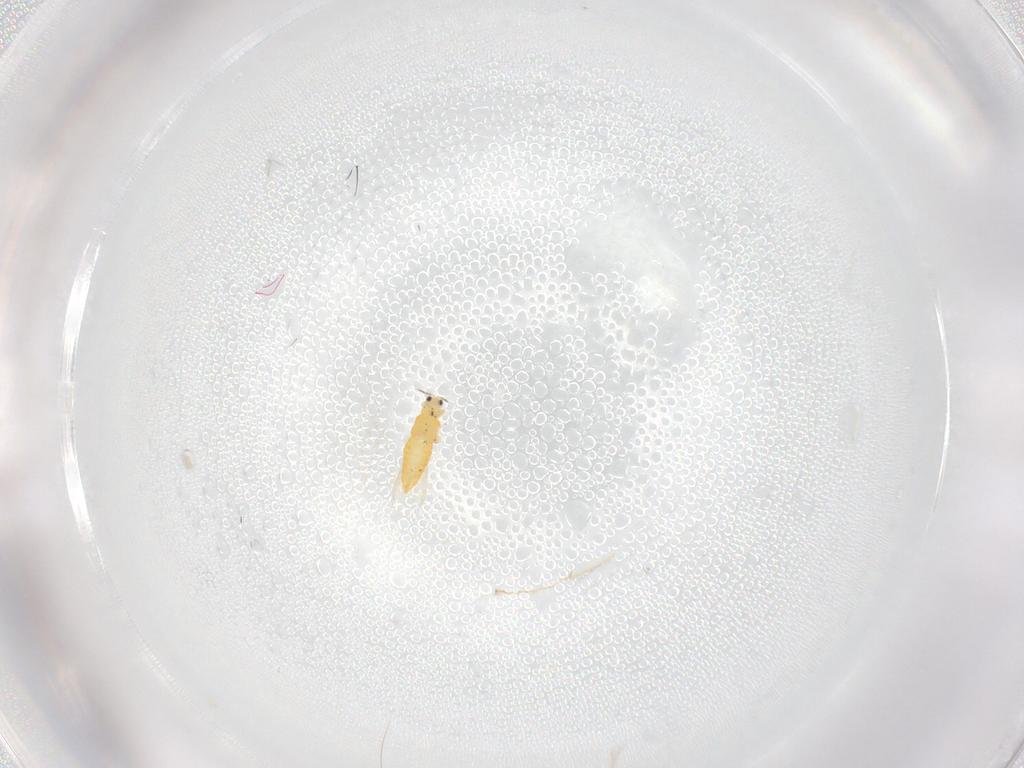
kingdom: Animalia
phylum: Arthropoda
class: Insecta
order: Thysanoptera
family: Thripidae
